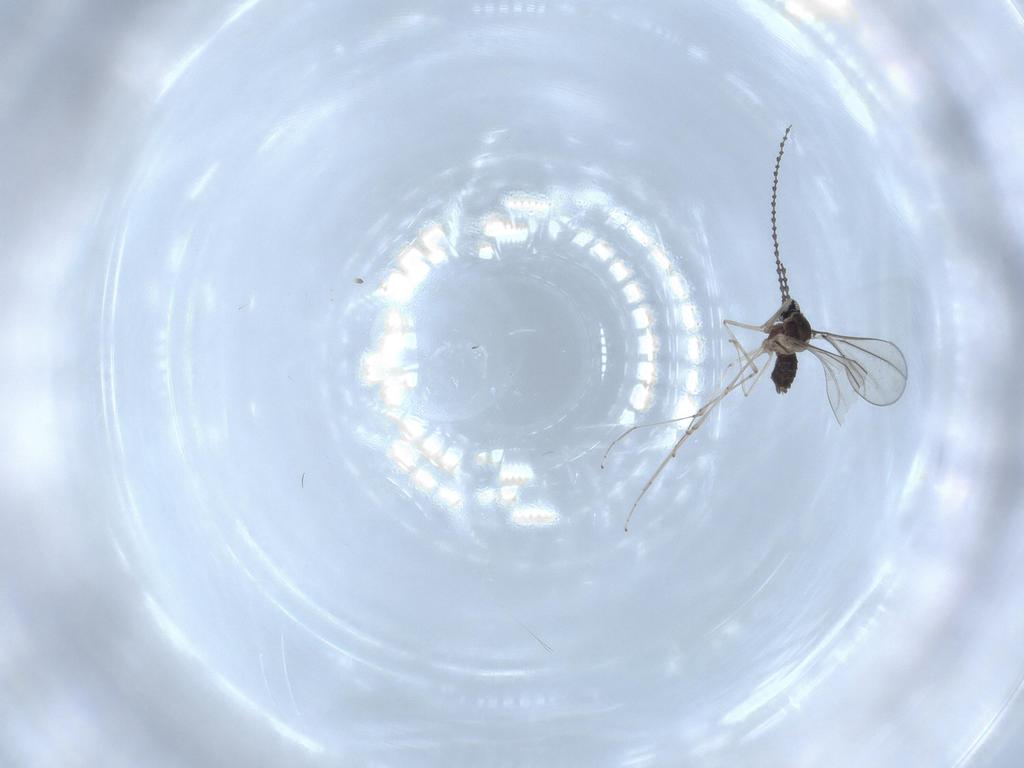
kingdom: Animalia
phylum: Arthropoda
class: Insecta
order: Diptera
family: Cecidomyiidae
